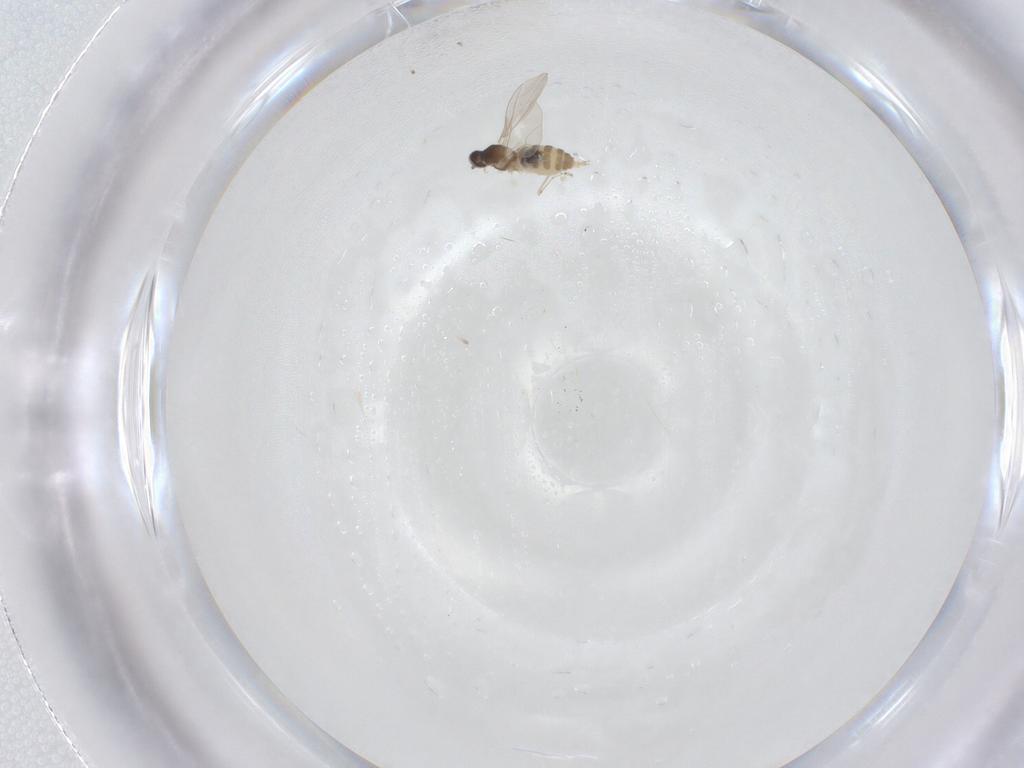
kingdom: Animalia
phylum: Arthropoda
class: Insecta
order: Diptera
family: Cecidomyiidae
